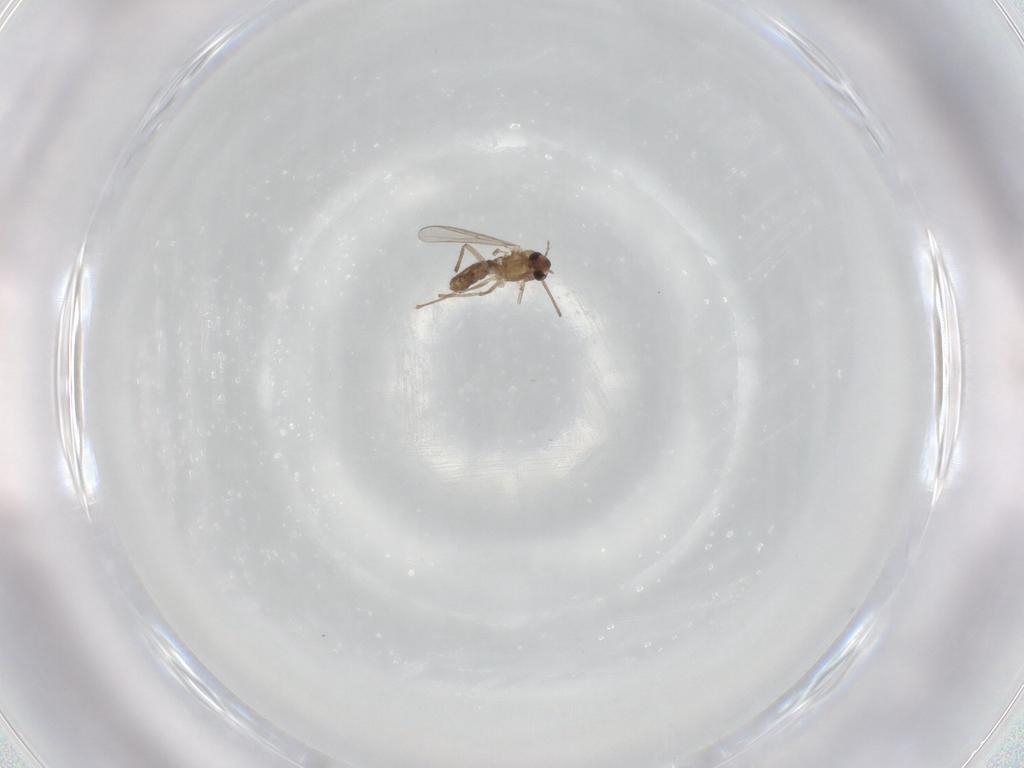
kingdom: Animalia
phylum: Arthropoda
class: Insecta
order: Diptera
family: Chironomidae
